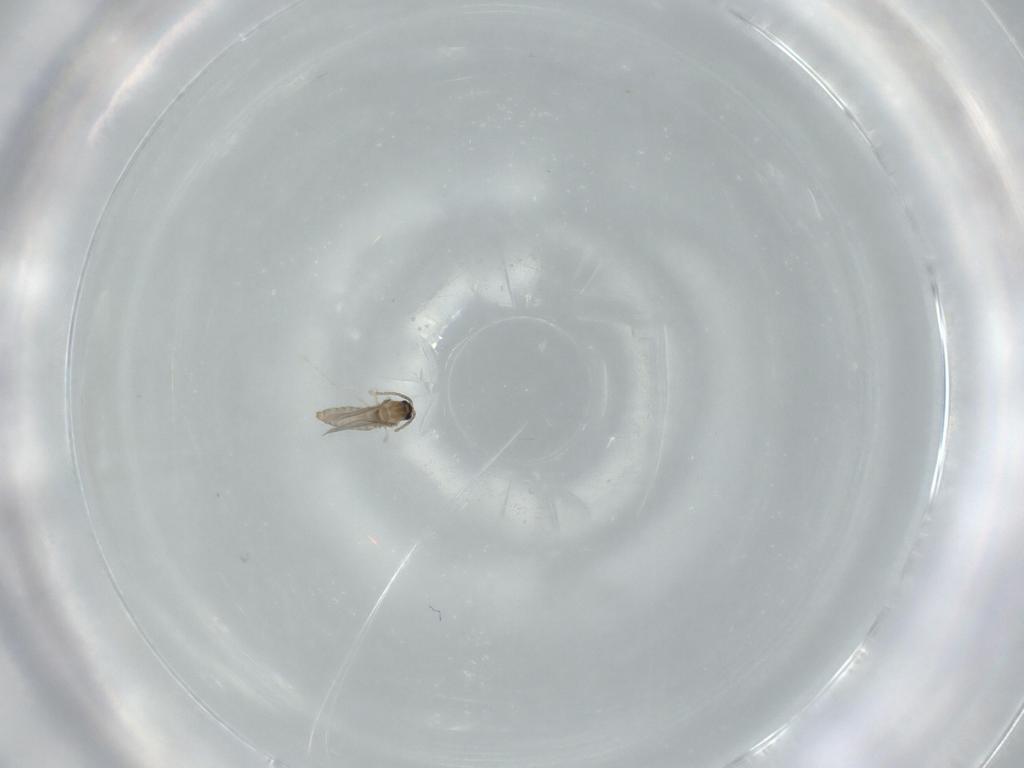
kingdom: Animalia
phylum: Arthropoda
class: Insecta
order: Diptera
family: Cecidomyiidae
